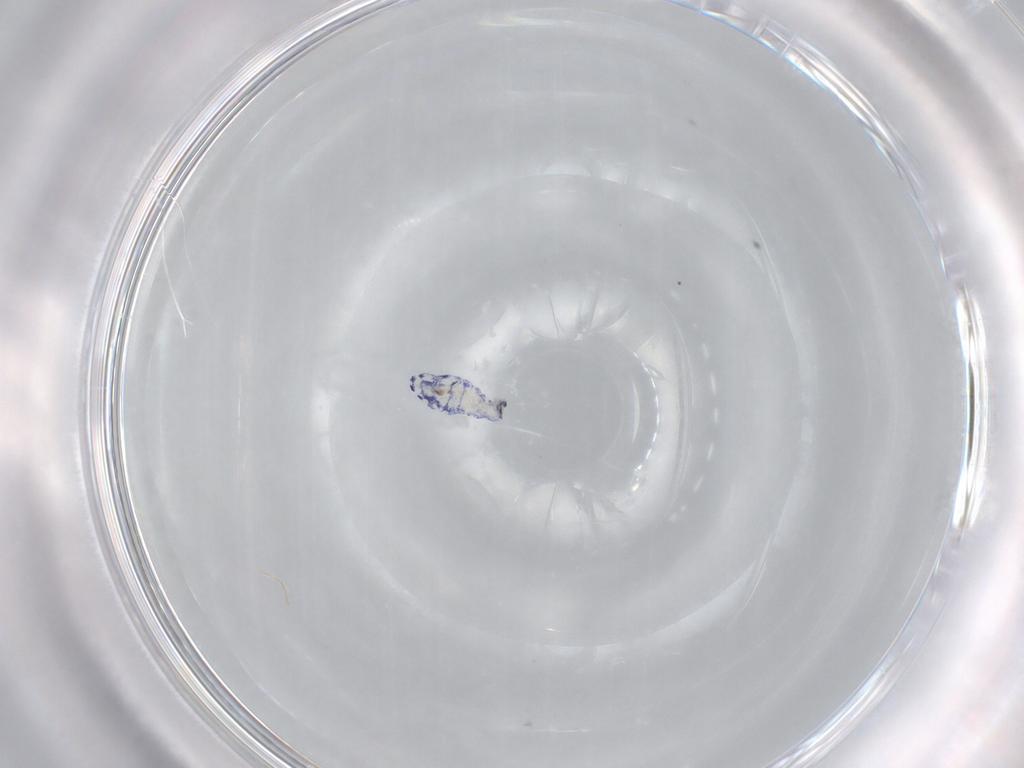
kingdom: Animalia
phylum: Arthropoda
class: Collembola
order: Entomobryomorpha
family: Entomobryidae
